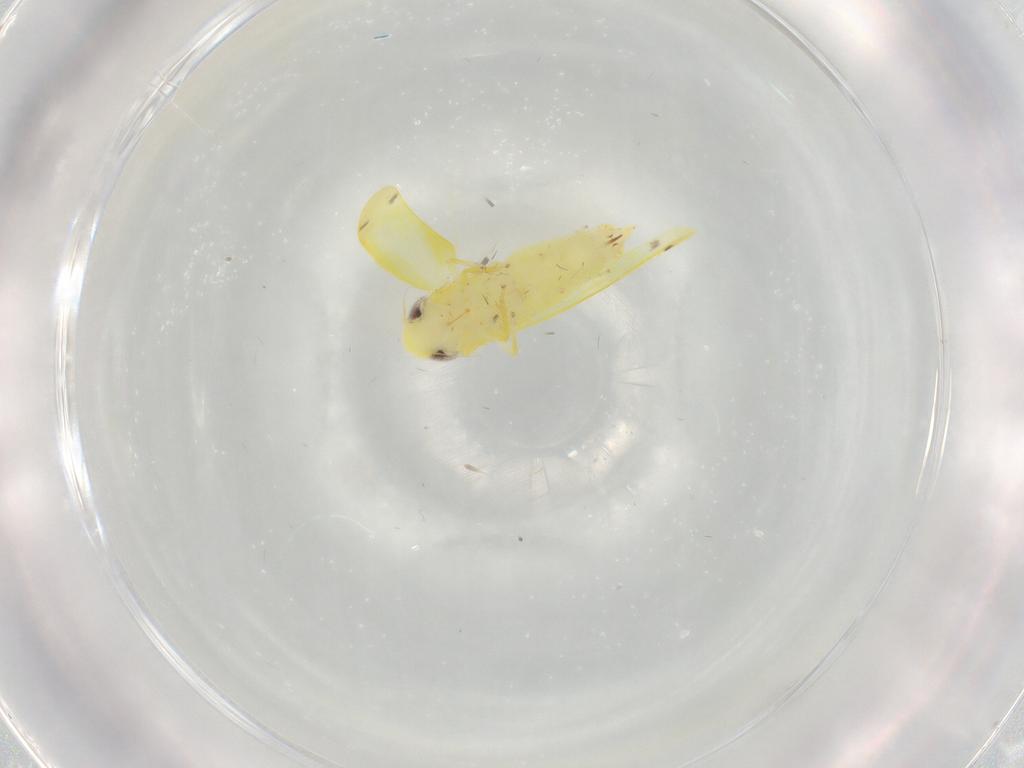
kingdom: Animalia
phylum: Arthropoda
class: Insecta
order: Hemiptera
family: Cicadellidae
